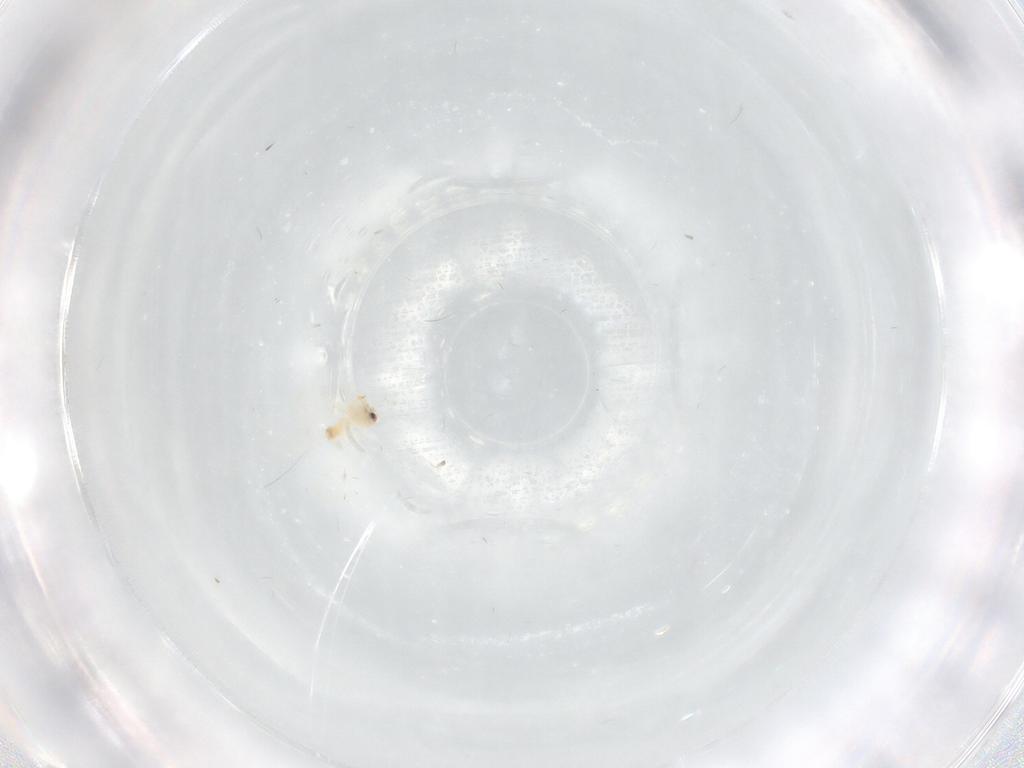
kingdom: Animalia
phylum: Arthropoda
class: Insecta
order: Hemiptera
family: Aleyrodidae
